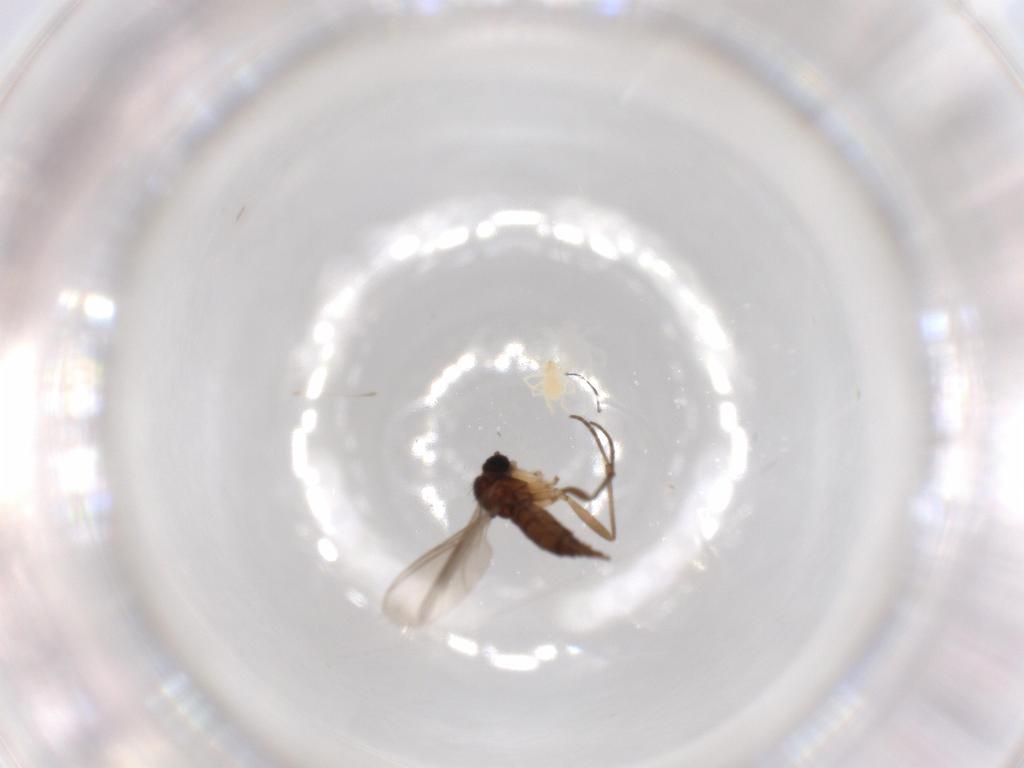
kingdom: Animalia
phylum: Arthropoda
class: Insecta
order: Diptera
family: Sciaridae
